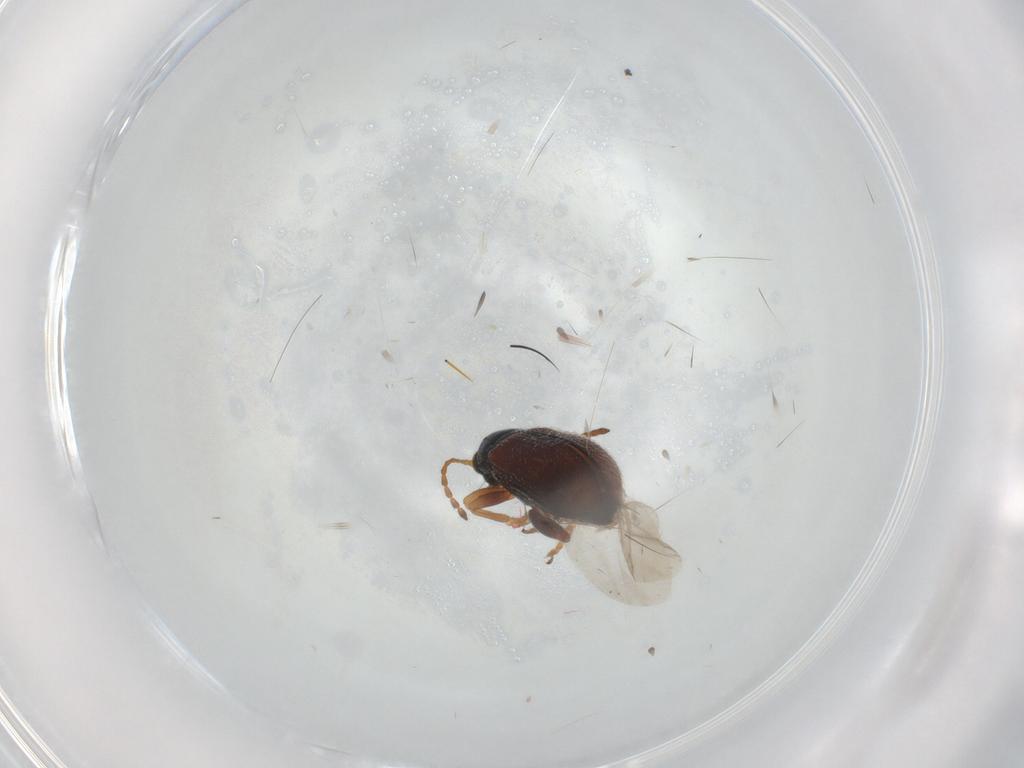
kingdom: Animalia
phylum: Arthropoda
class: Insecta
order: Coleoptera
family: Chrysomelidae
